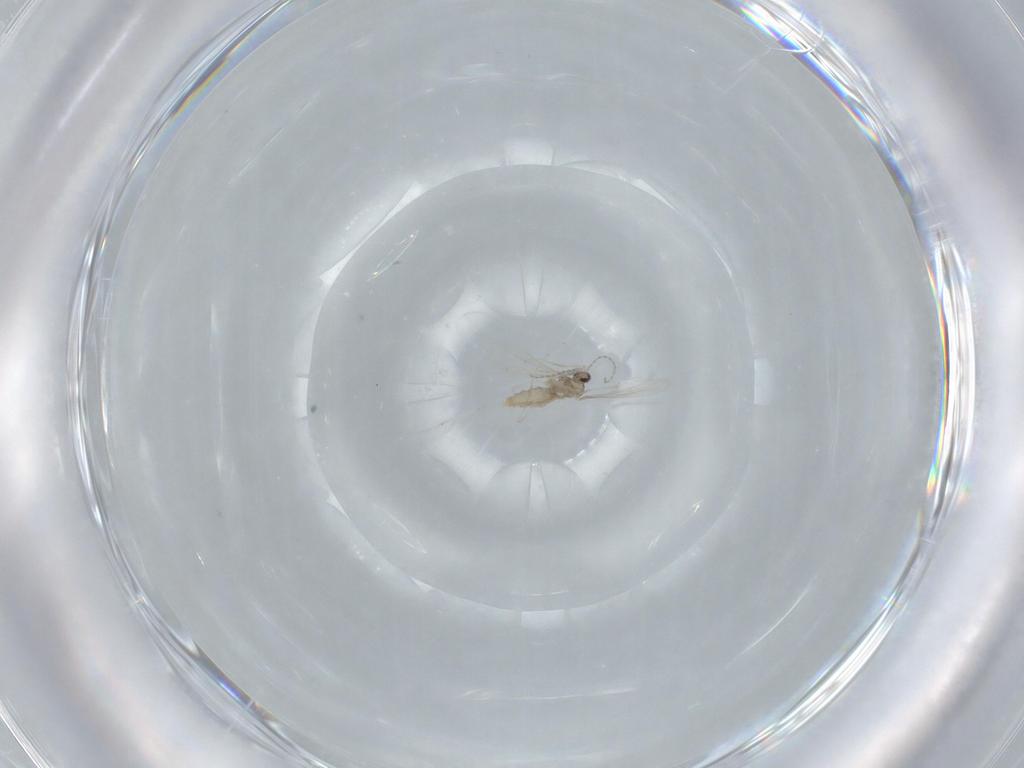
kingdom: Animalia
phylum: Arthropoda
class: Insecta
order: Diptera
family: Cecidomyiidae
